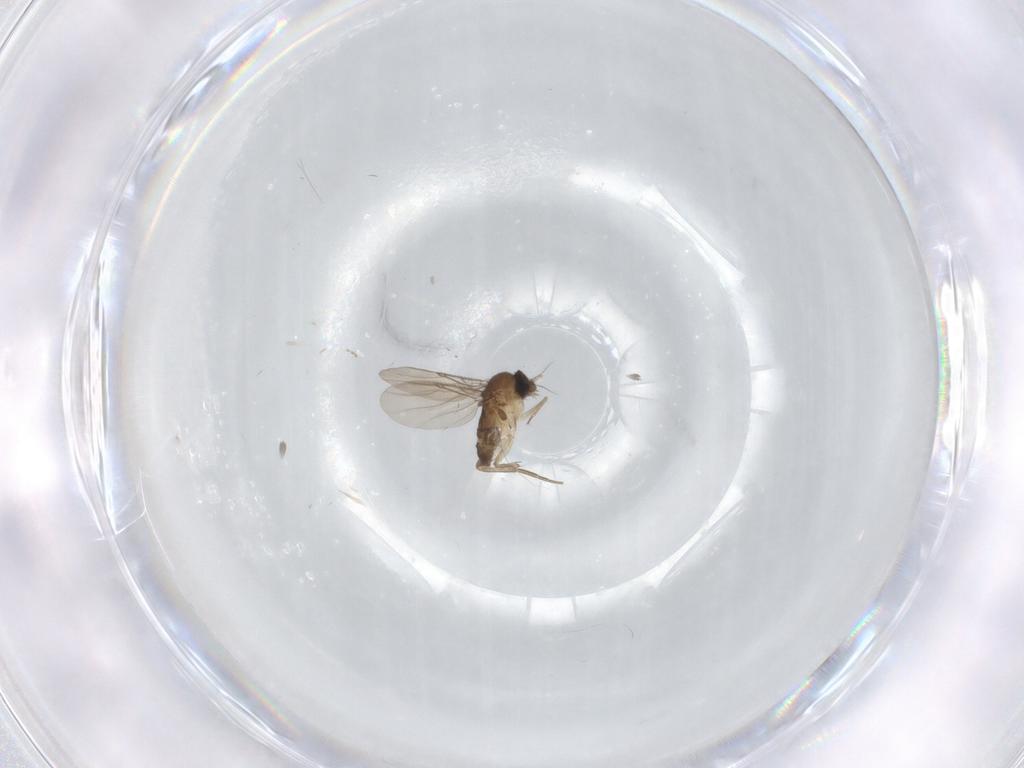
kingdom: Animalia
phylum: Arthropoda
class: Insecta
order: Diptera
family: Phoridae
